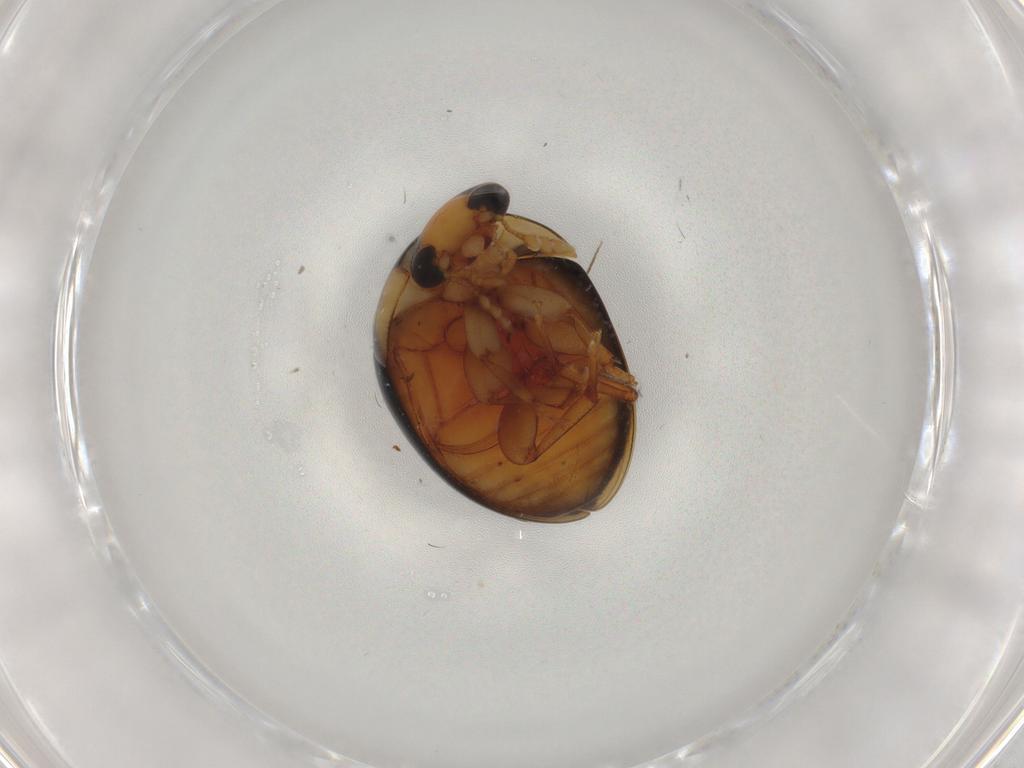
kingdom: Animalia
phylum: Arthropoda
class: Insecta
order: Coleoptera
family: Phalacridae
